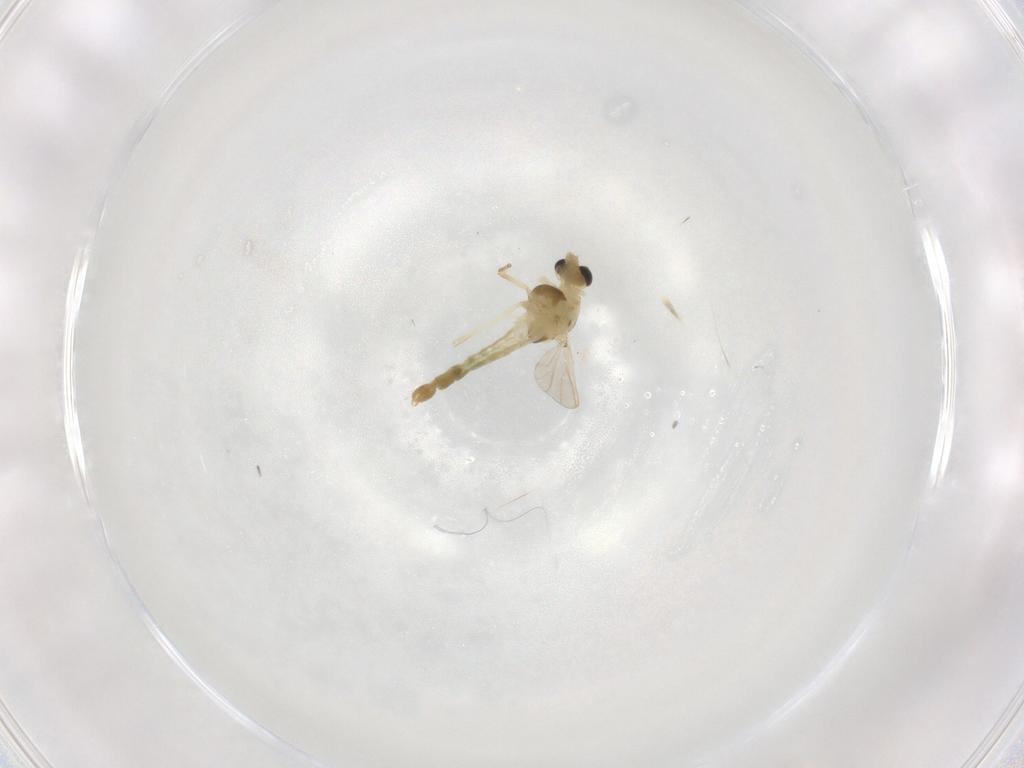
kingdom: Animalia
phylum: Arthropoda
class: Insecta
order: Diptera
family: Chironomidae
